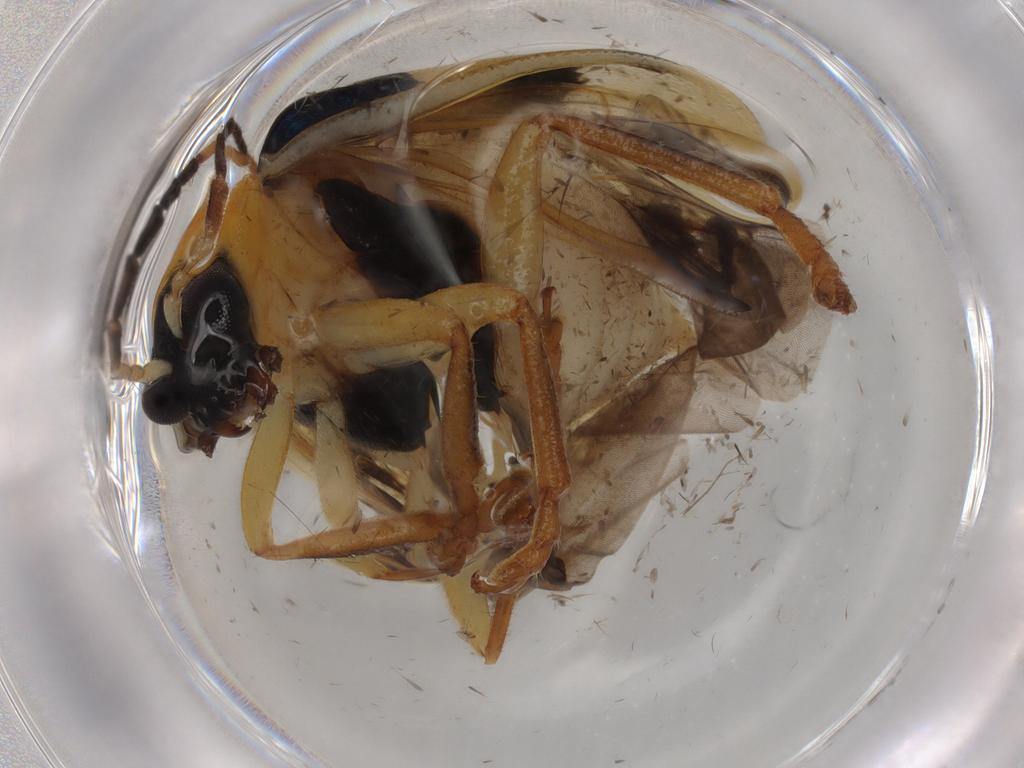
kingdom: Animalia
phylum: Arthropoda
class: Insecta
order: Coleoptera
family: Chrysomelidae
